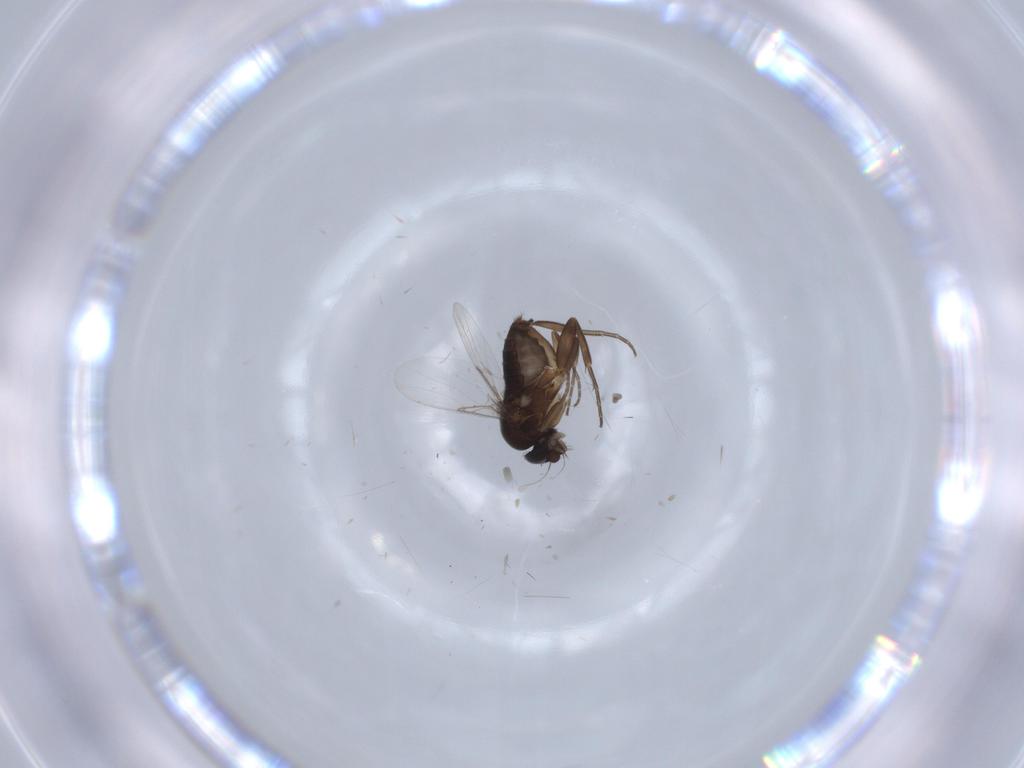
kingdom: Animalia
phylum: Arthropoda
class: Insecta
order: Diptera
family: Phoridae
